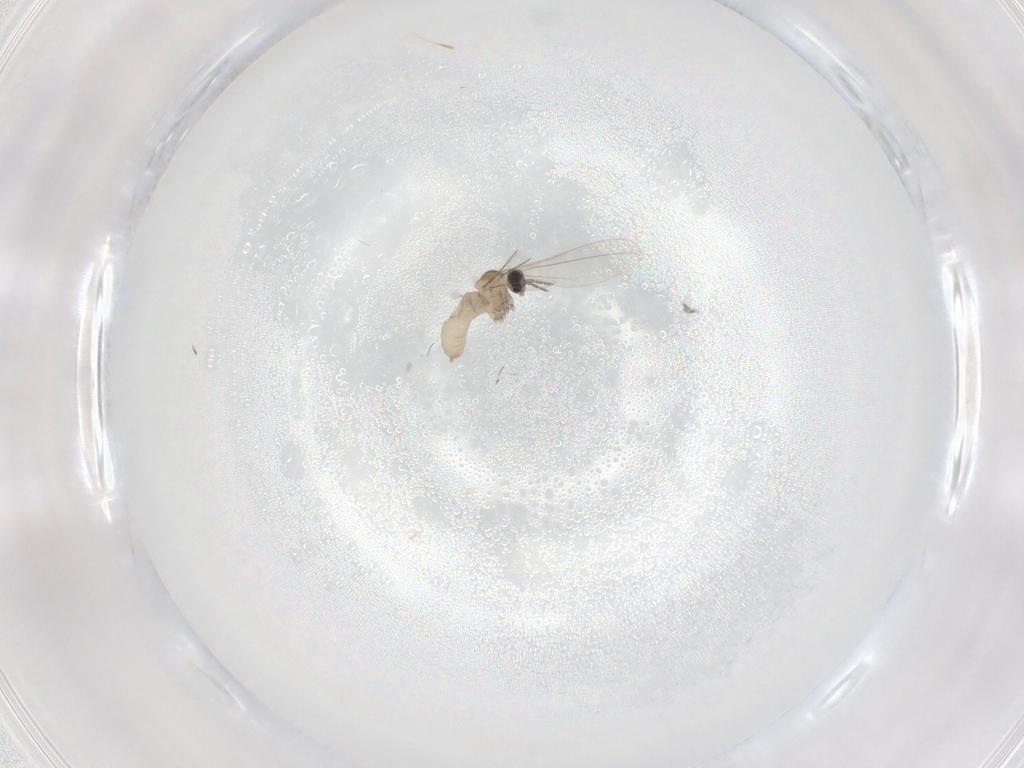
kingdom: Animalia
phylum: Arthropoda
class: Insecta
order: Diptera
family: Cecidomyiidae
